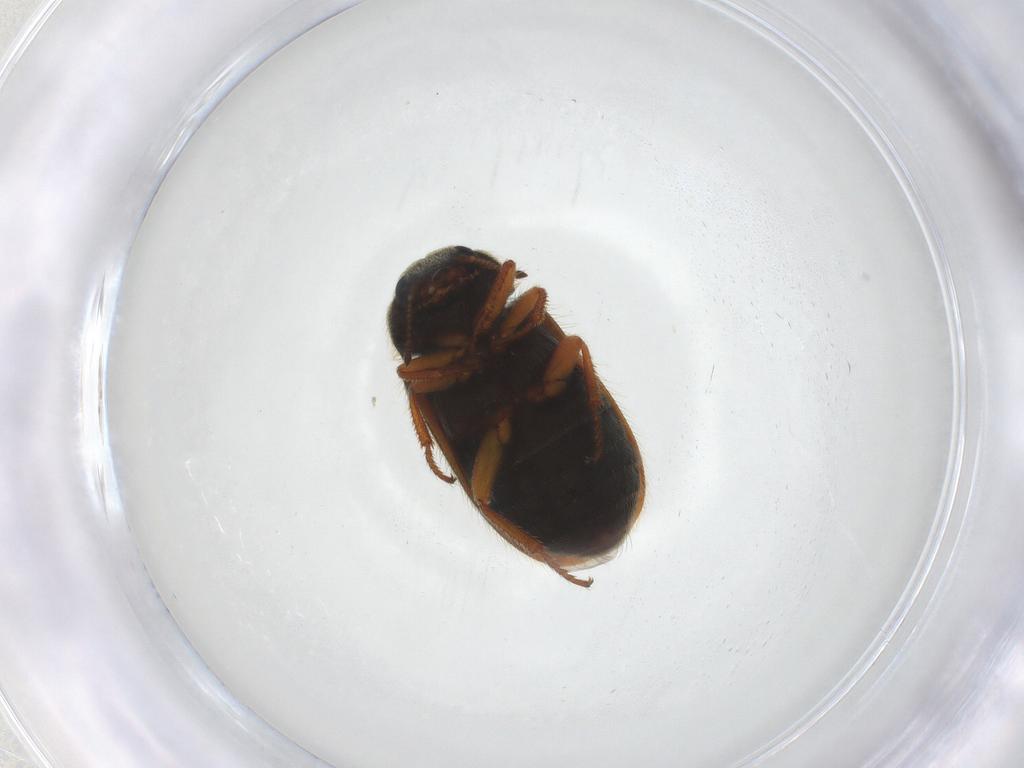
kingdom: Animalia
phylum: Arthropoda
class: Insecta
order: Coleoptera
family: Melyridae
